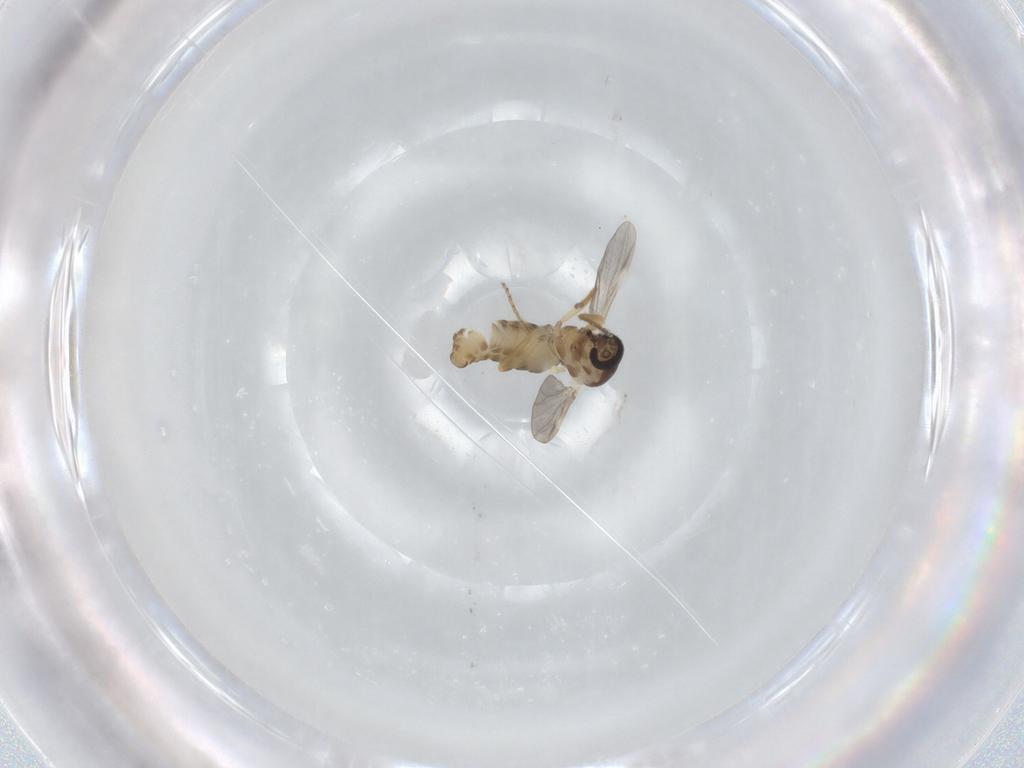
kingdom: Animalia
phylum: Arthropoda
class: Insecta
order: Diptera
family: Ceratopogonidae
